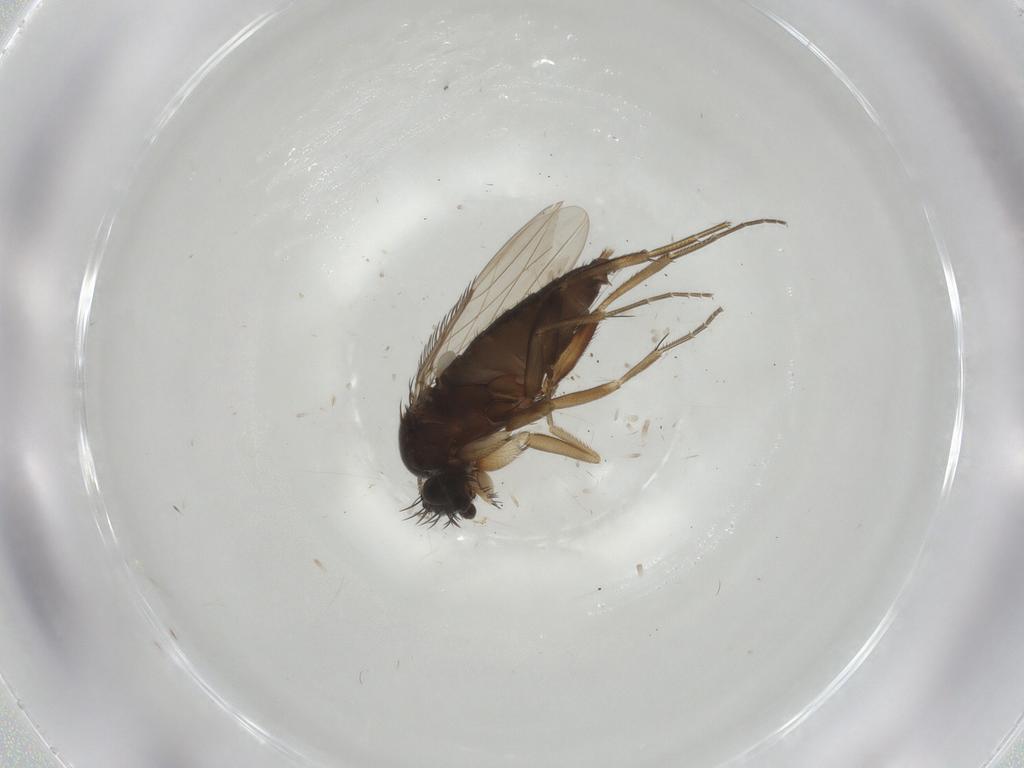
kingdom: Animalia
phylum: Arthropoda
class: Insecta
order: Diptera
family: Phoridae
